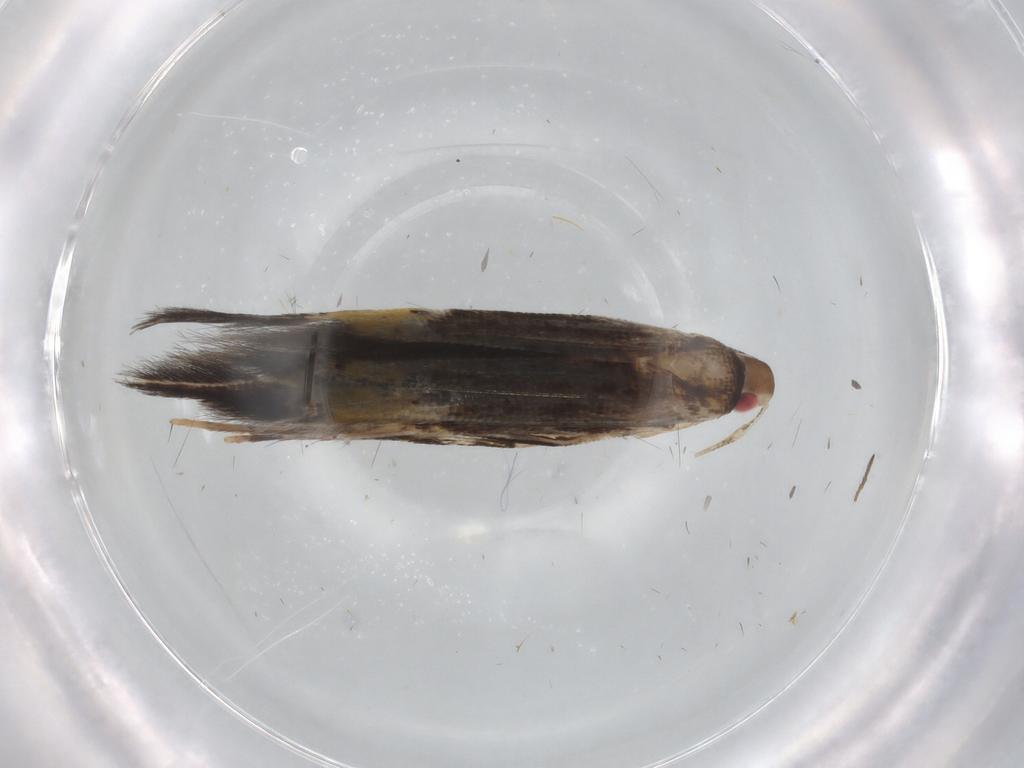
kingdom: Animalia
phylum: Arthropoda
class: Insecta
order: Lepidoptera
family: Cosmopterigidae
